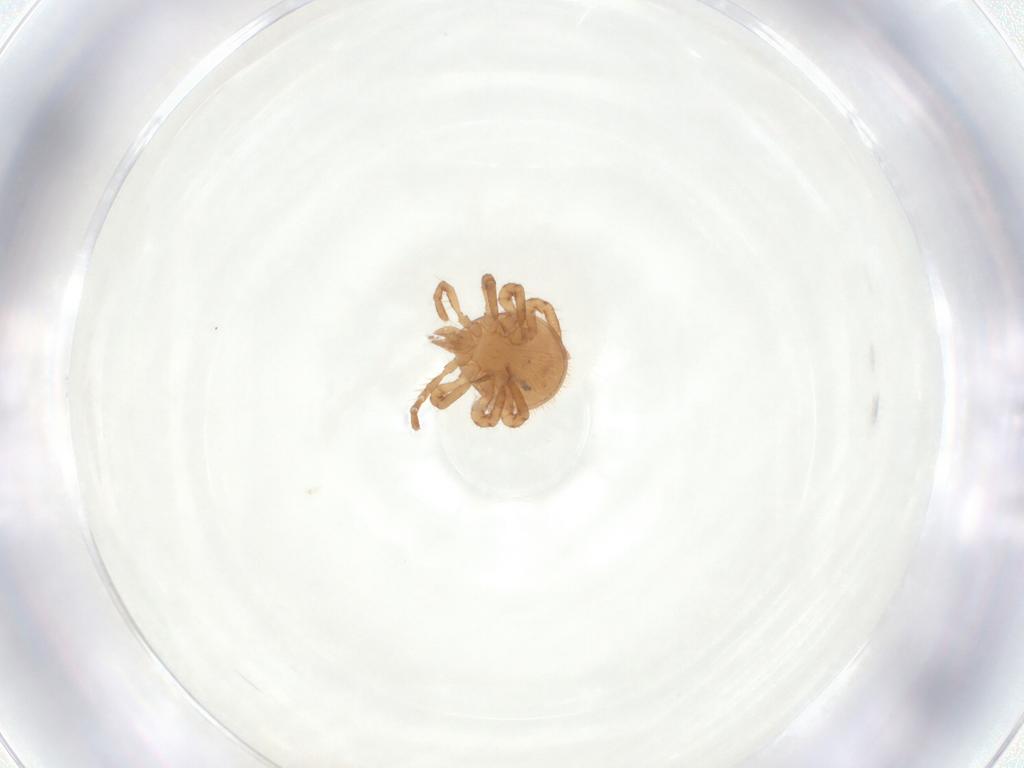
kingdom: Animalia
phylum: Arthropoda
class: Arachnida
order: Araneae
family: Lycosidae
